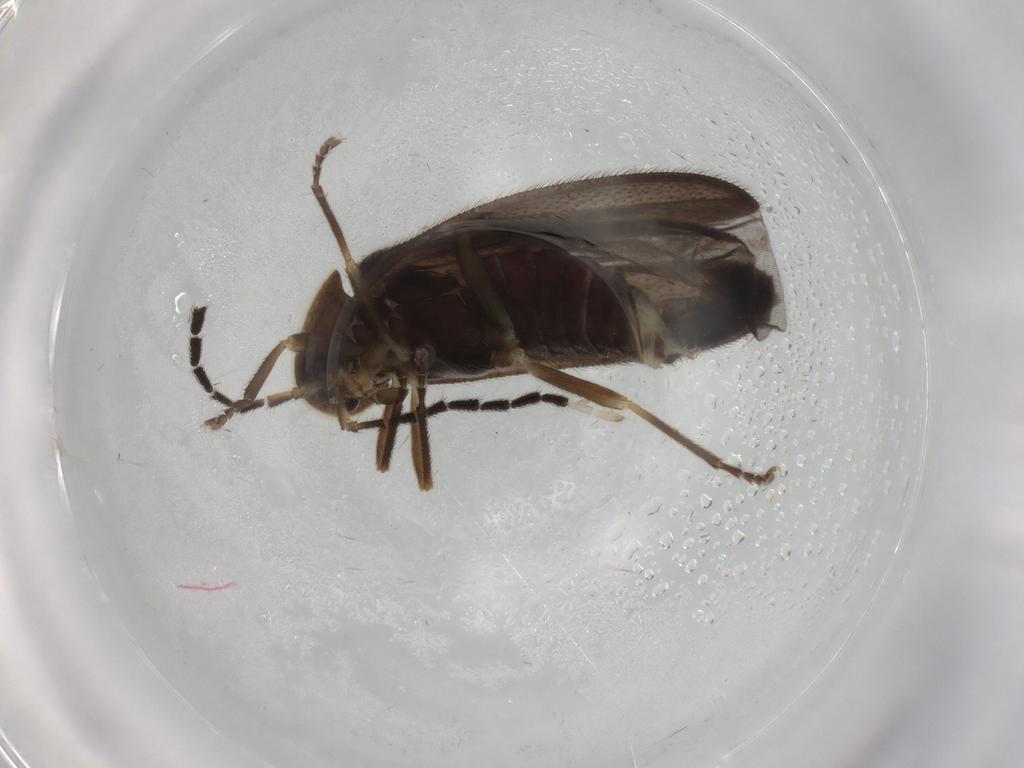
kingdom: Animalia
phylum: Arthropoda
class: Insecta
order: Coleoptera
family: Lampyridae
